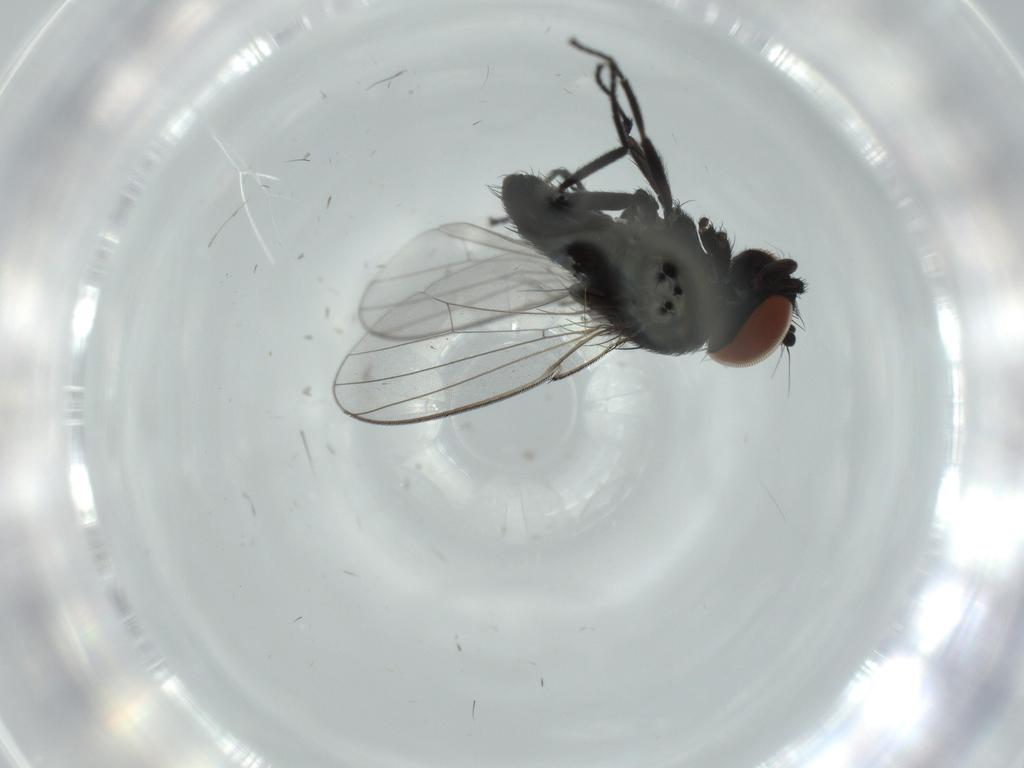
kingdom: Animalia
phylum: Arthropoda
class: Insecta
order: Diptera
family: Milichiidae
